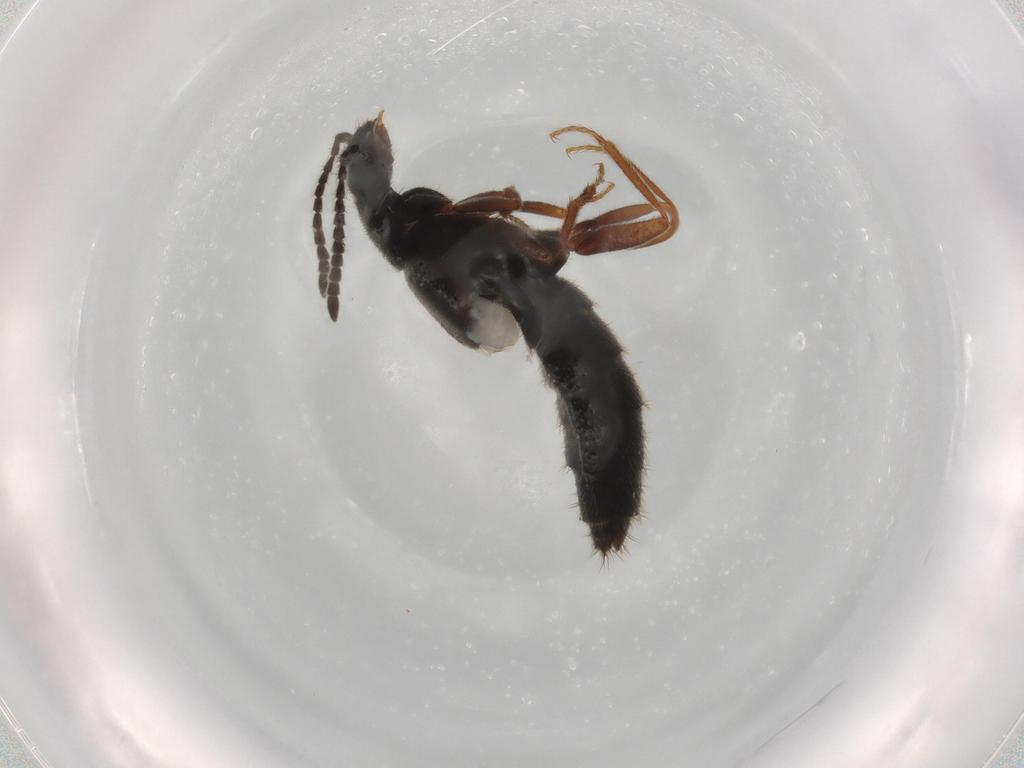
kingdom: Animalia
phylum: Arthropoda
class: Insecta
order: Coleoptera
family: Staphylinidae
